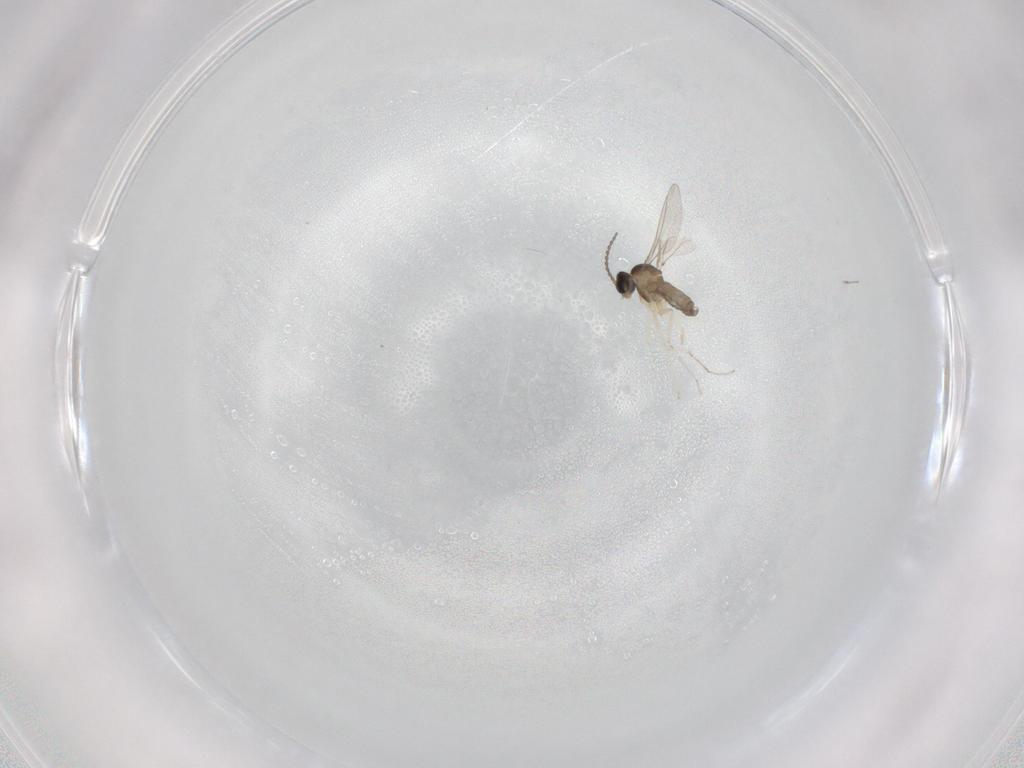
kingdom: Animalia
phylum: Arthropoda
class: Insecta
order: Diptera
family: Cecidomyiidae
